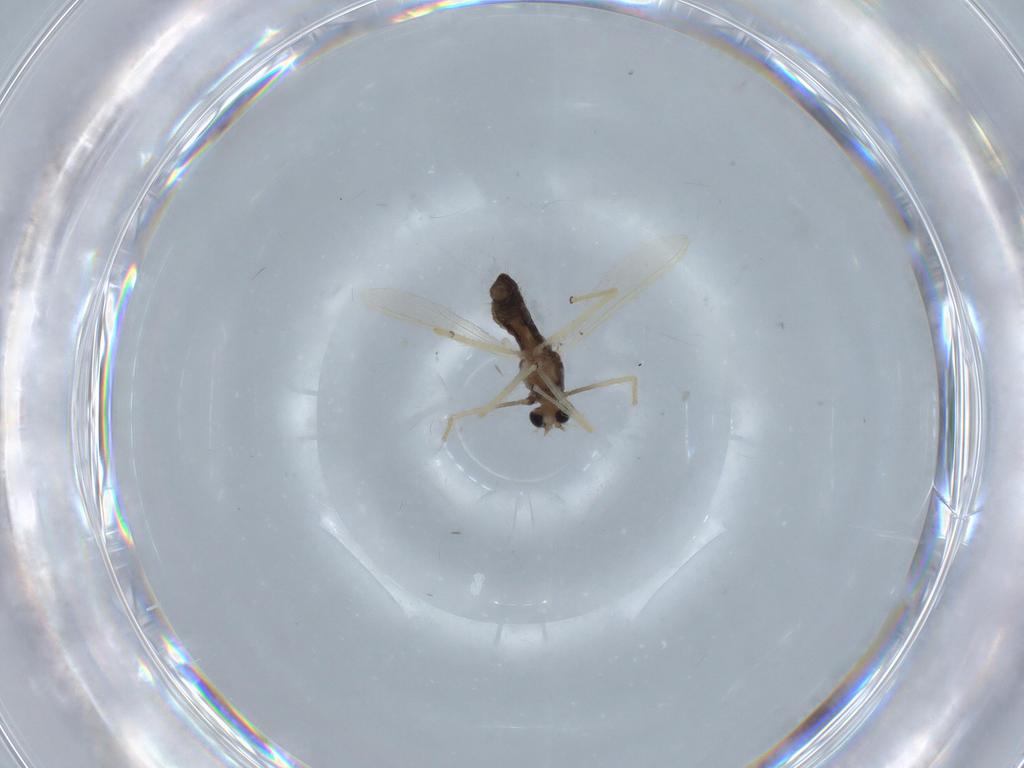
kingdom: Animalia
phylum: Arthropoda
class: Insecta
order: Diptera
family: Chironomidae
